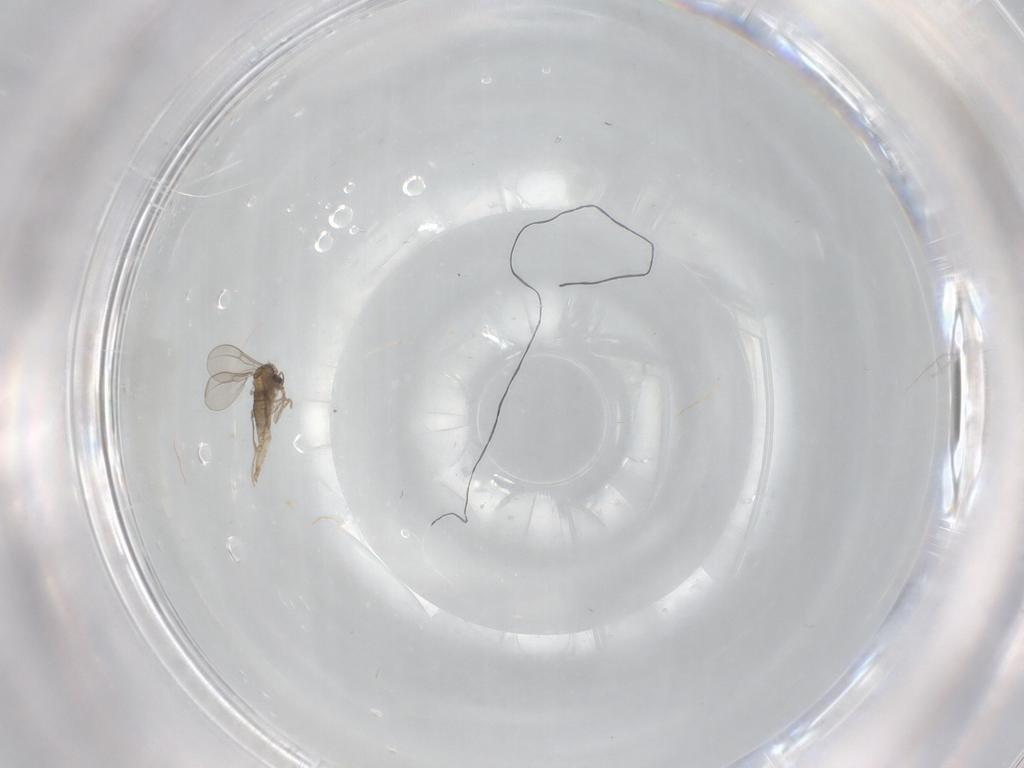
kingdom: Animalia
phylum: Arthropoda
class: Insecta
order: Diptera
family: Cecidomyiidae
